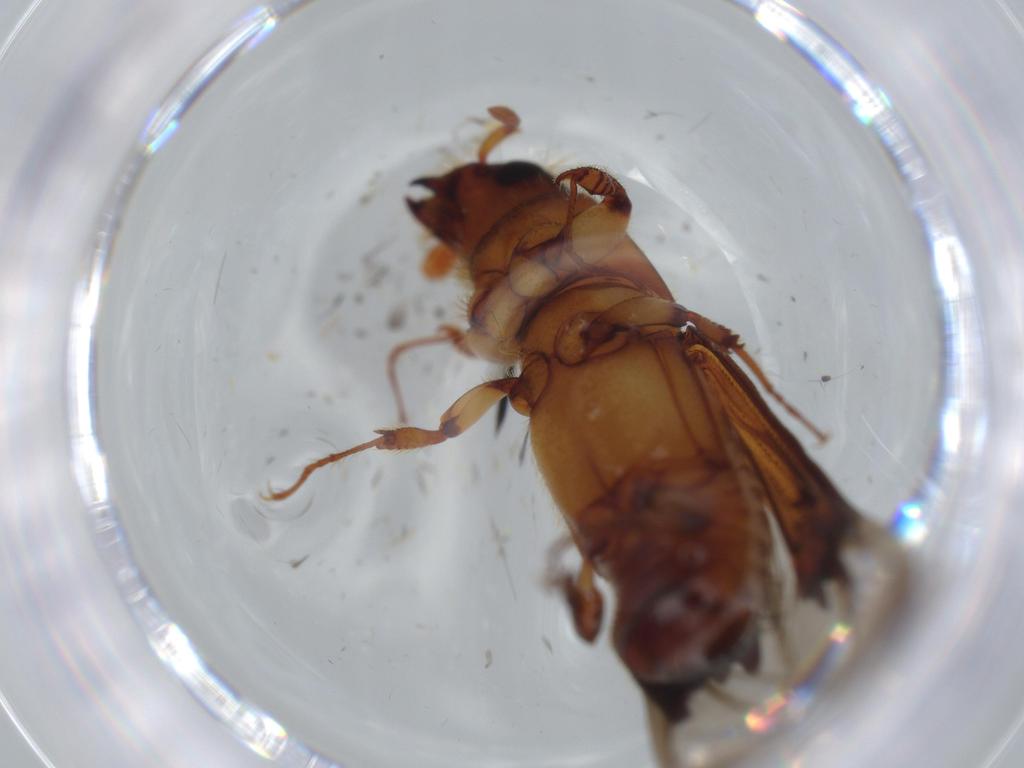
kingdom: Animalia
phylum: Arthropoda
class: Insecta
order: Coleoptera
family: Curculionidae
